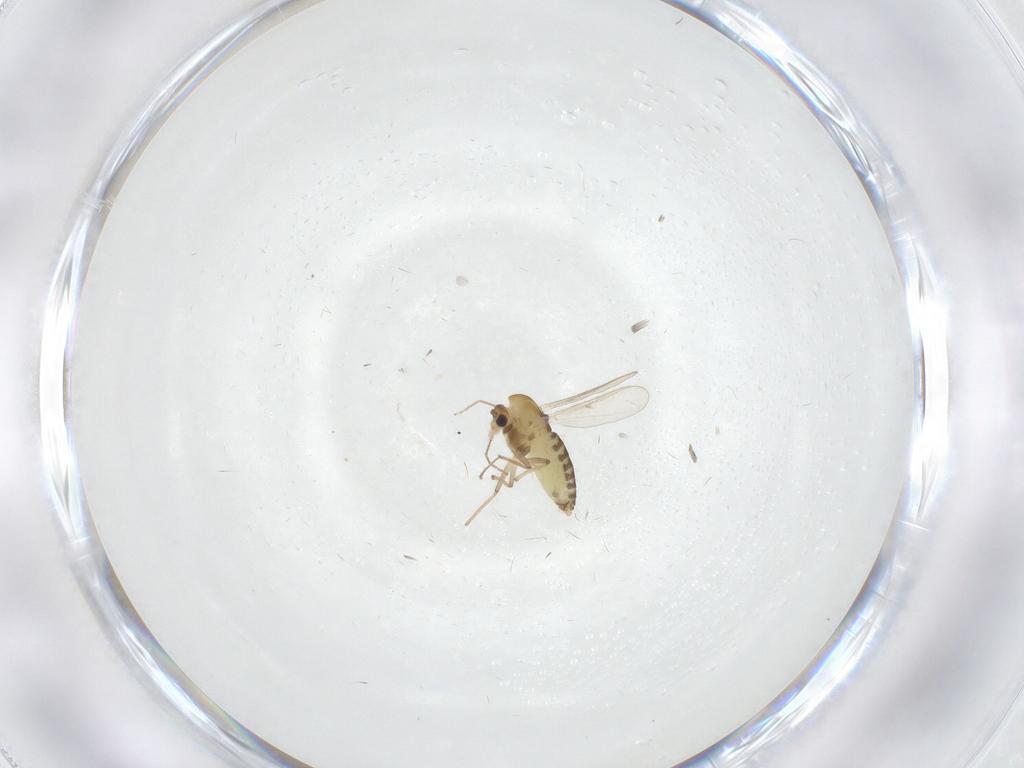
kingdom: Animalia
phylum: Arthropoda
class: Insecta
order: Diptera
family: Chironomidae
